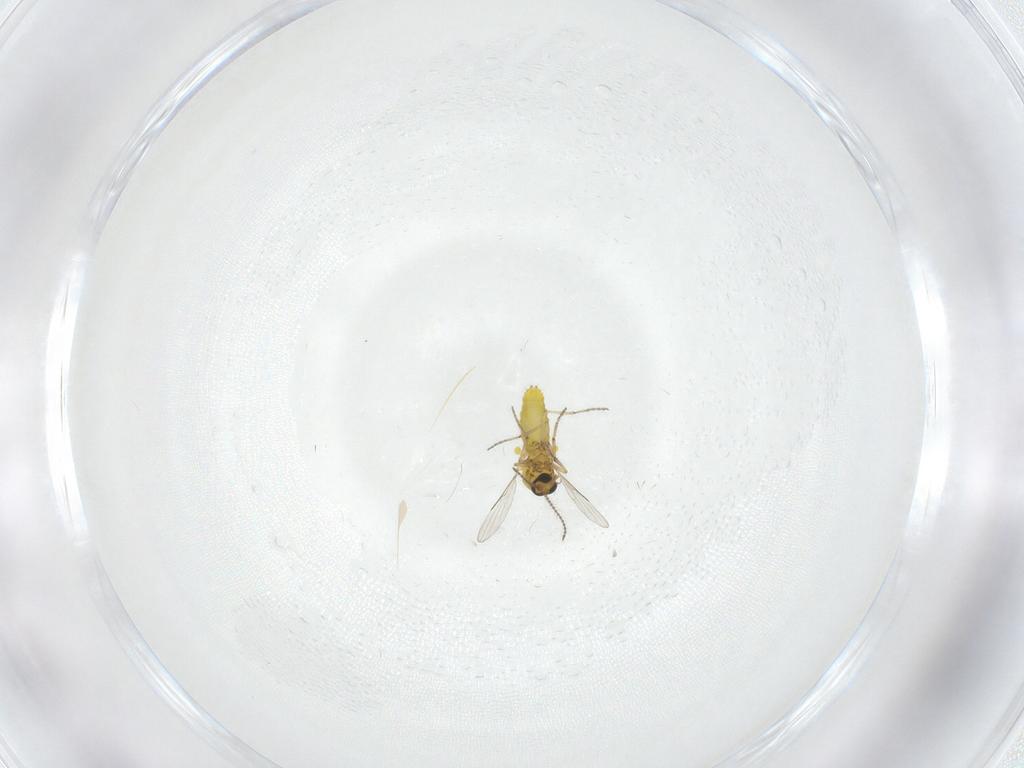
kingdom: Animalia
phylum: Arthropoda
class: Insecta
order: Diptera
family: Ceratopogonidae
